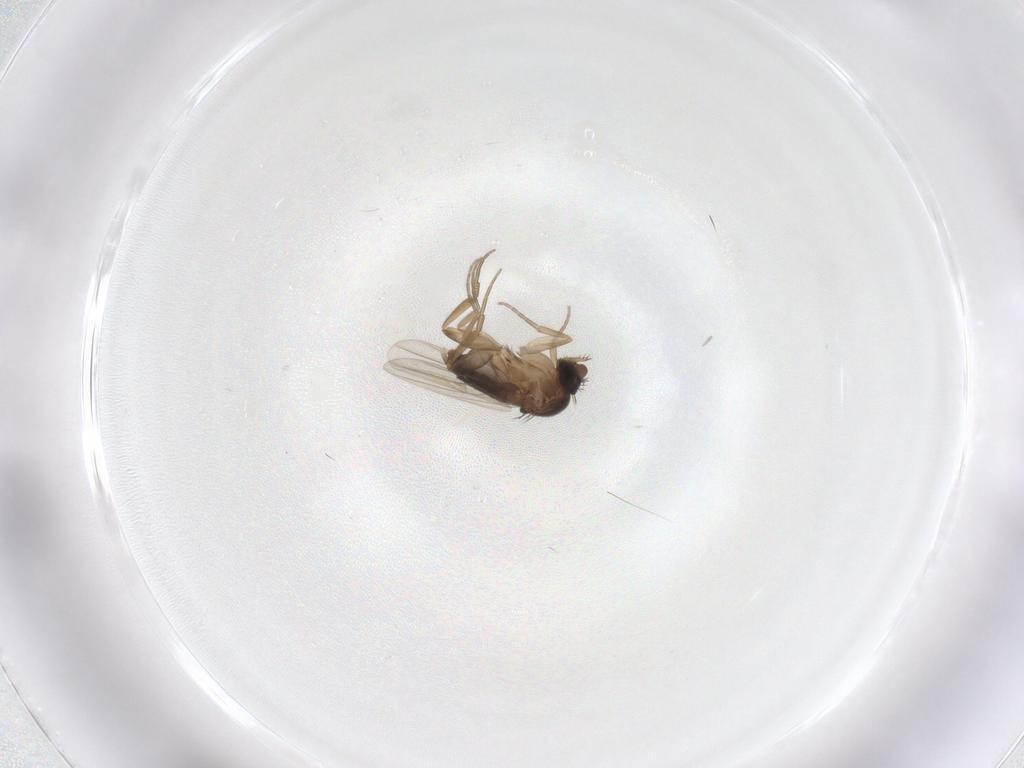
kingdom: Animalia
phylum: Arthropoda
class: Insecta
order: Diptera
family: Phoridae
